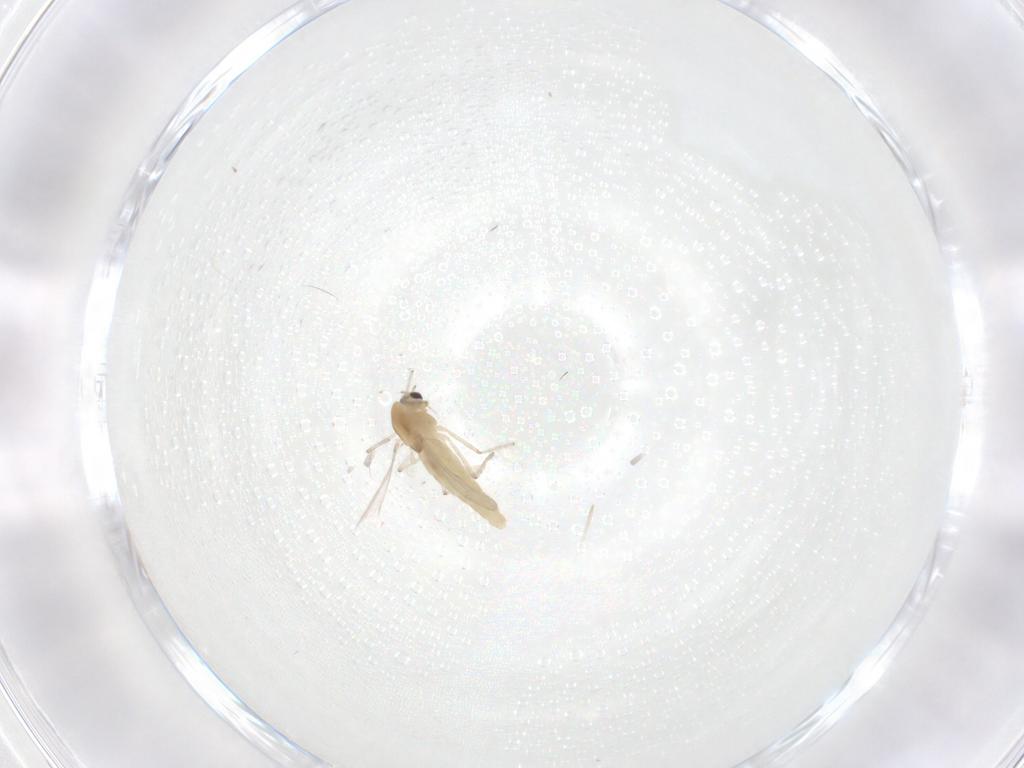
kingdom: Animalia
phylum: Arthropoda
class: Insecta
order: Diptera
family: Chironomidae
